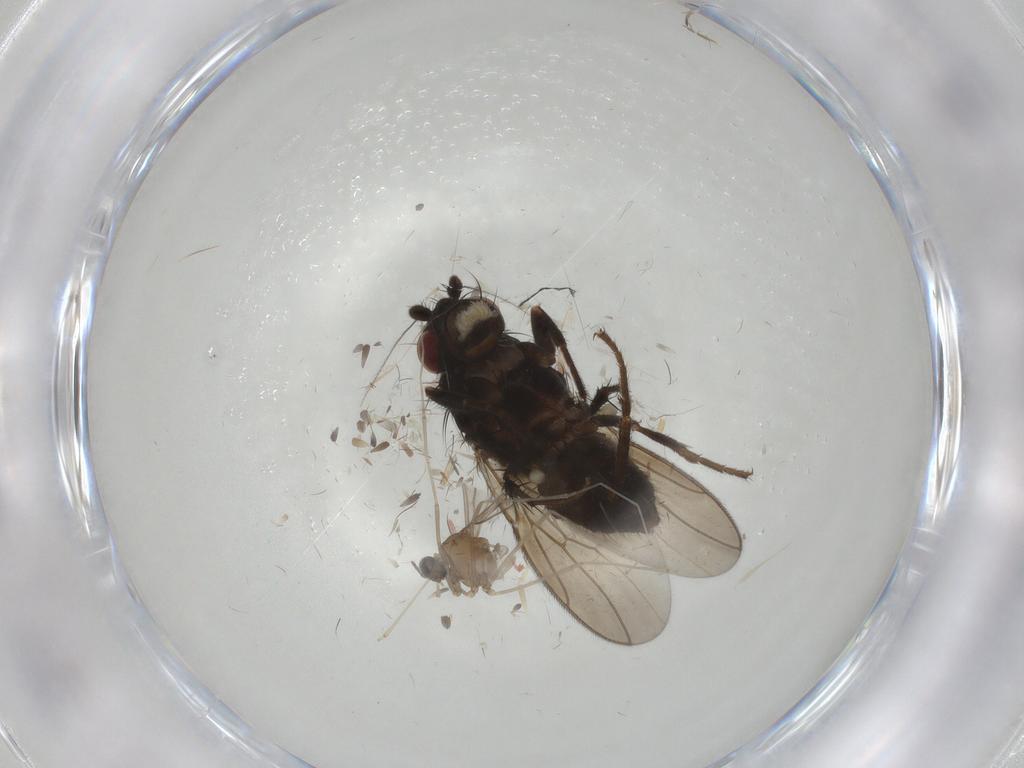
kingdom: Animalia
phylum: Arthropoda
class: Insecta
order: Diptera
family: Sphaeroceridae
